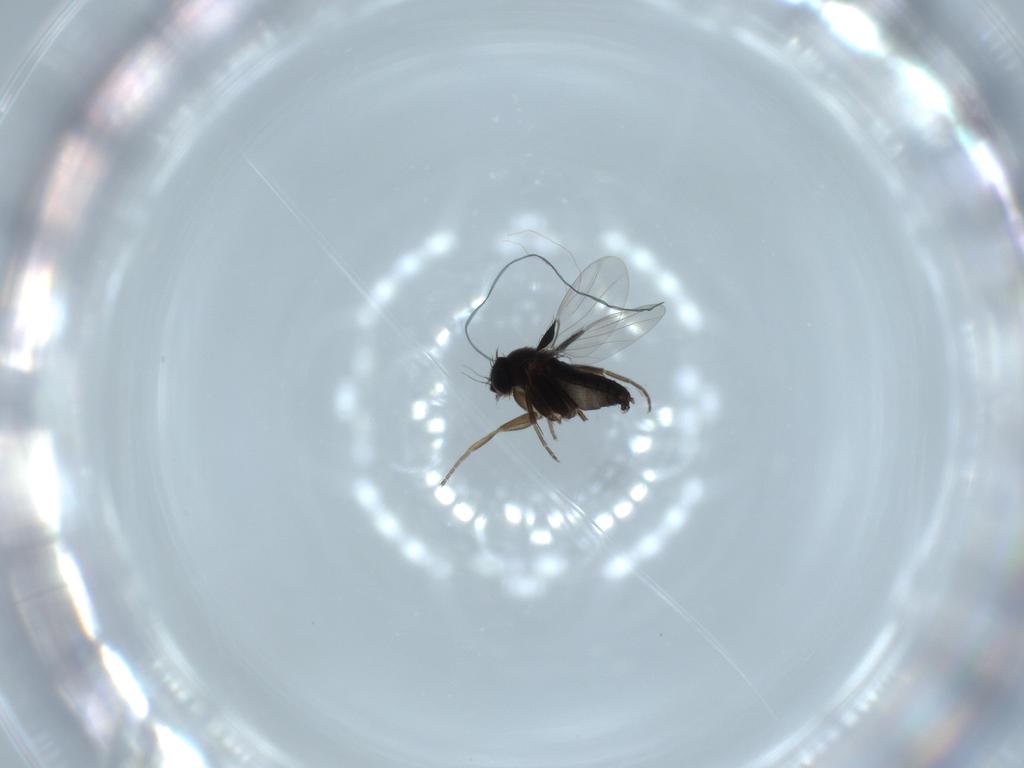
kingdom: Animalia
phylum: Arthropoda
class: Insecta
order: Diptera
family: Phoridae
